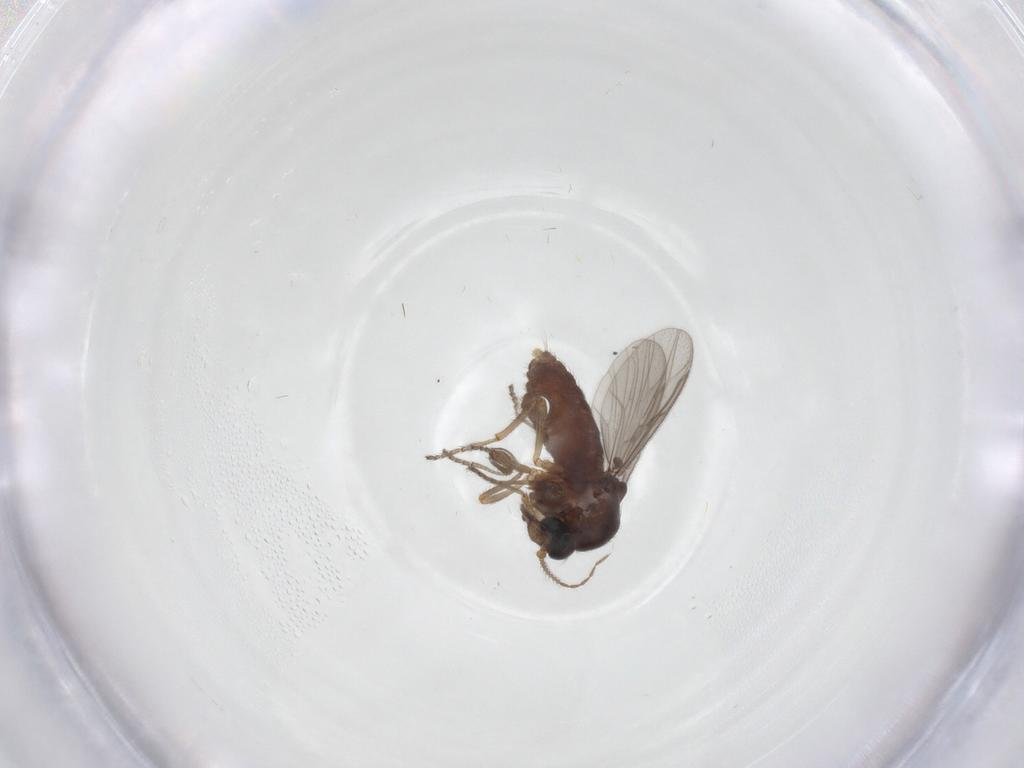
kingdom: Animalia
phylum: Arthropoda
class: Insecta
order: Diptera
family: Ceratopogonidae
